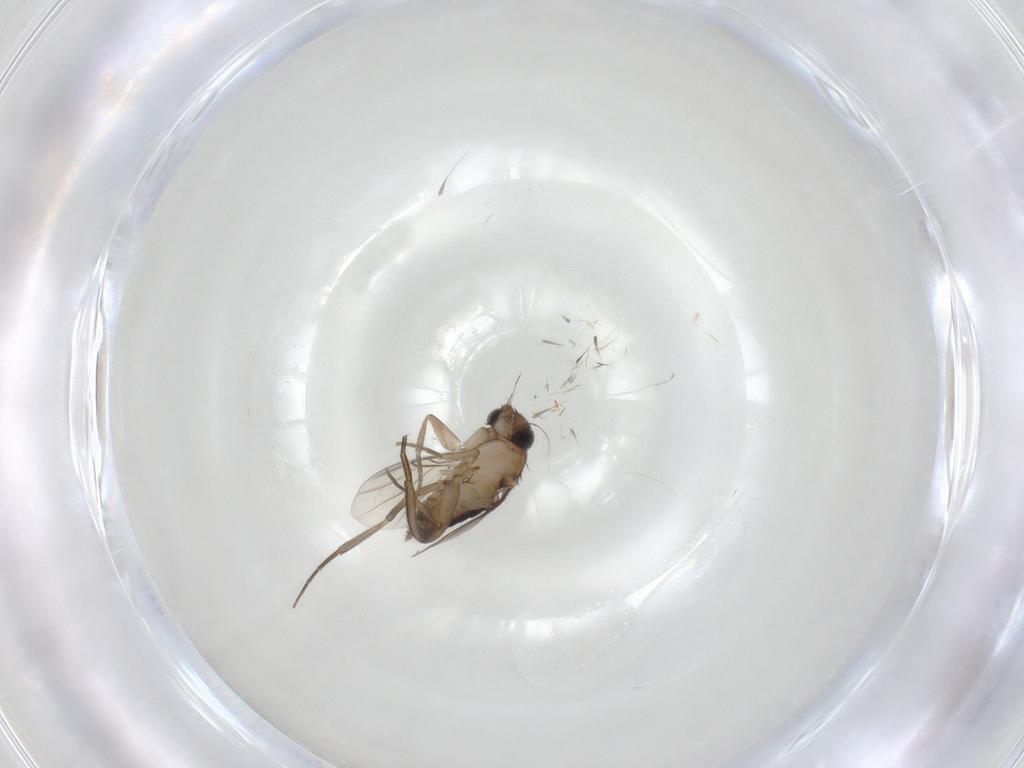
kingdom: Animalia
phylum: Arthropoda
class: Insecta
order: Diptera
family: Phoridae
